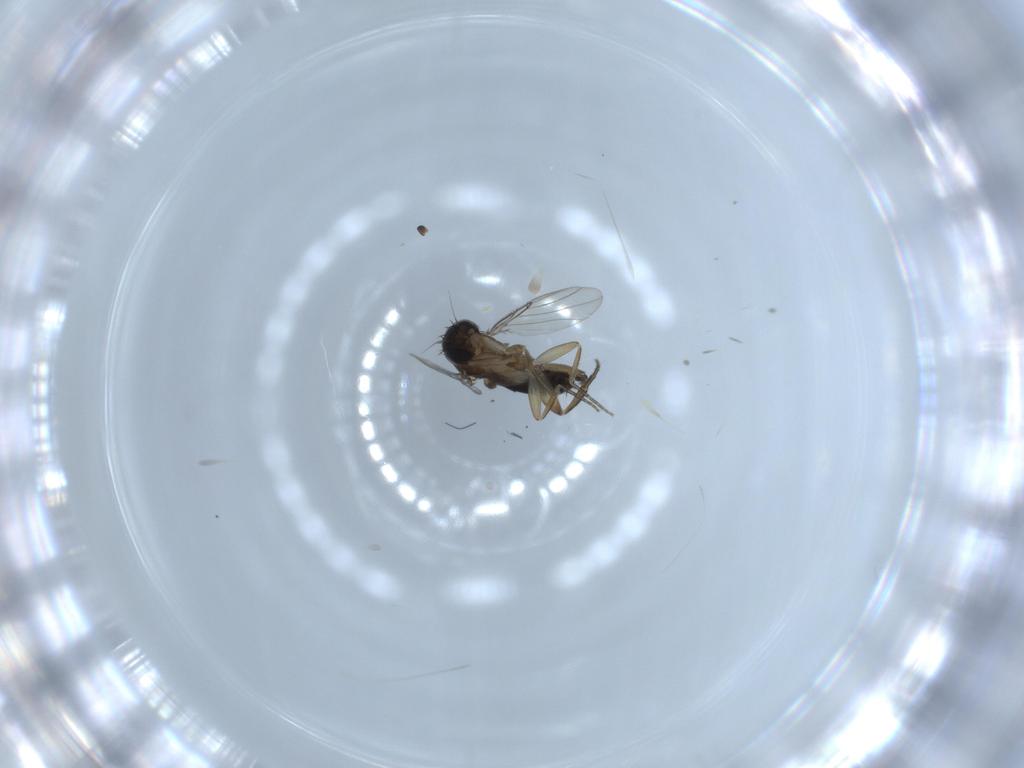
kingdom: Animalia
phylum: Arthropoda
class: Insecta
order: Diptera
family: Phoridae
